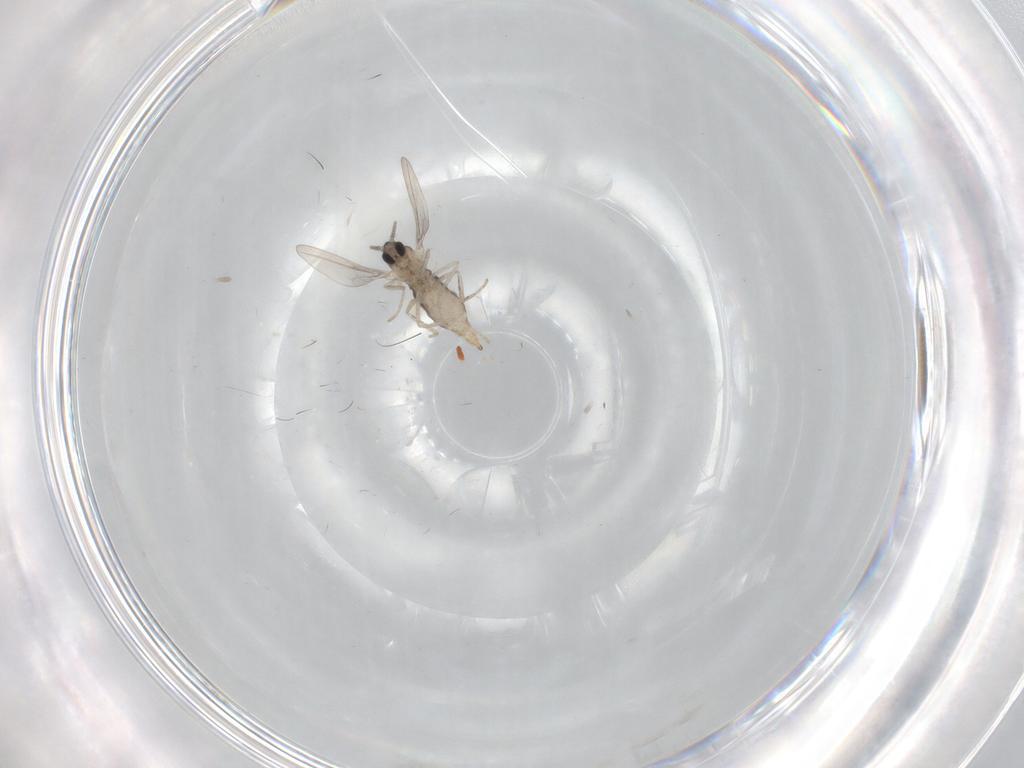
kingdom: Animalia
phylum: Arthropoda
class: Insecta
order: Diptera
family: Cecidomyiidae
